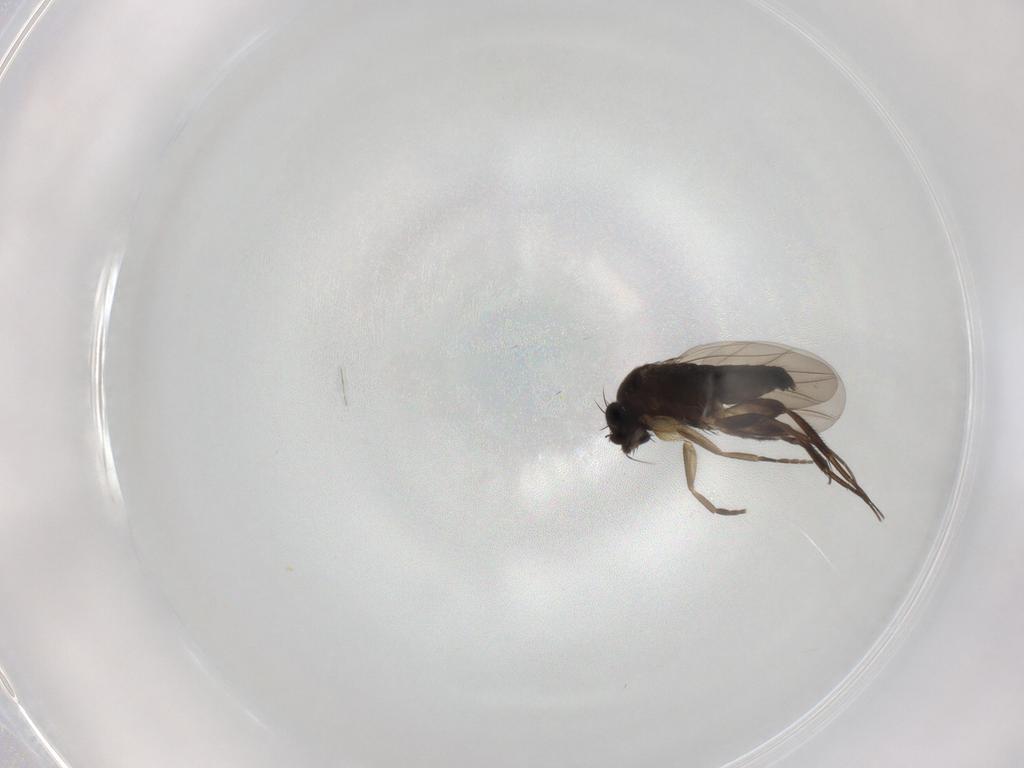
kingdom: Animalia
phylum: Arthropoda
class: Insecta
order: Diptera
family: Phoridae
